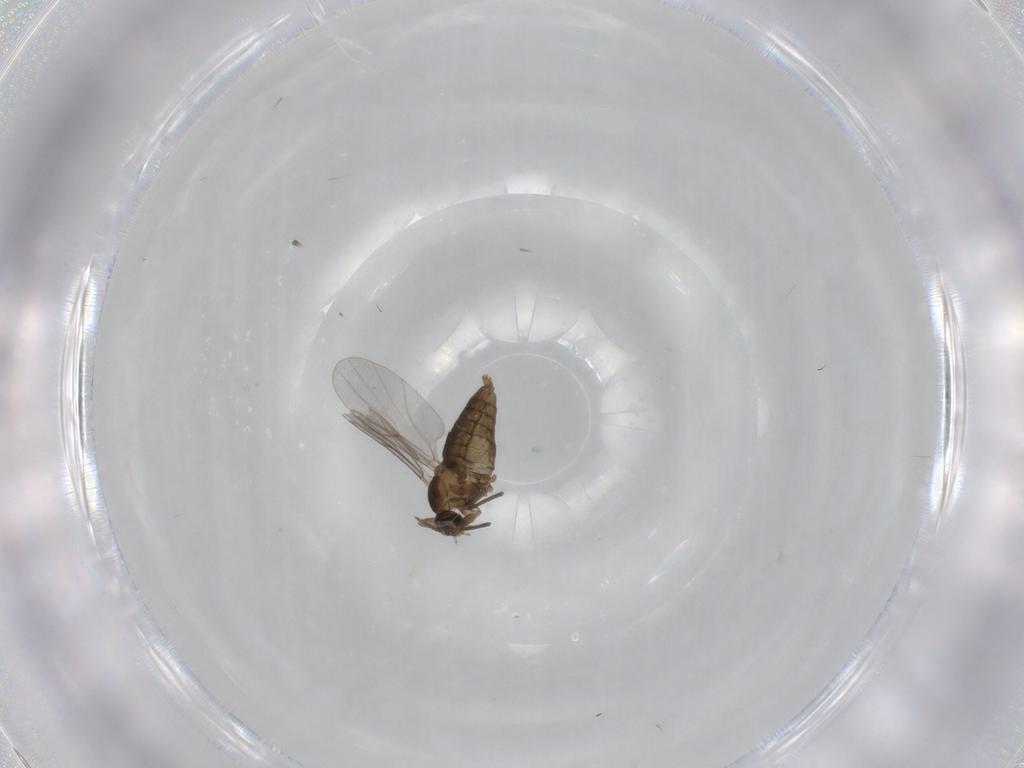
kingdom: Animalia
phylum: Arthropoda
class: Insecta
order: Diptera
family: Cecidomyiidae
